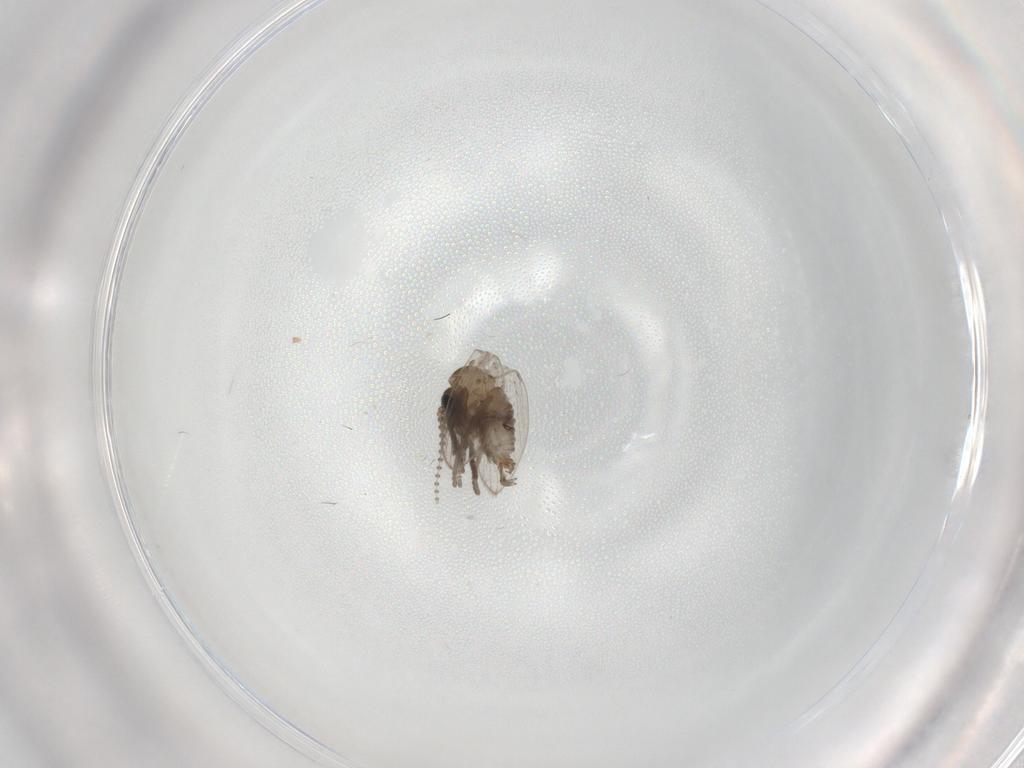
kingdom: Animalia
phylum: Arthropoda
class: Insecta
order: Diptera
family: Psychodidae
